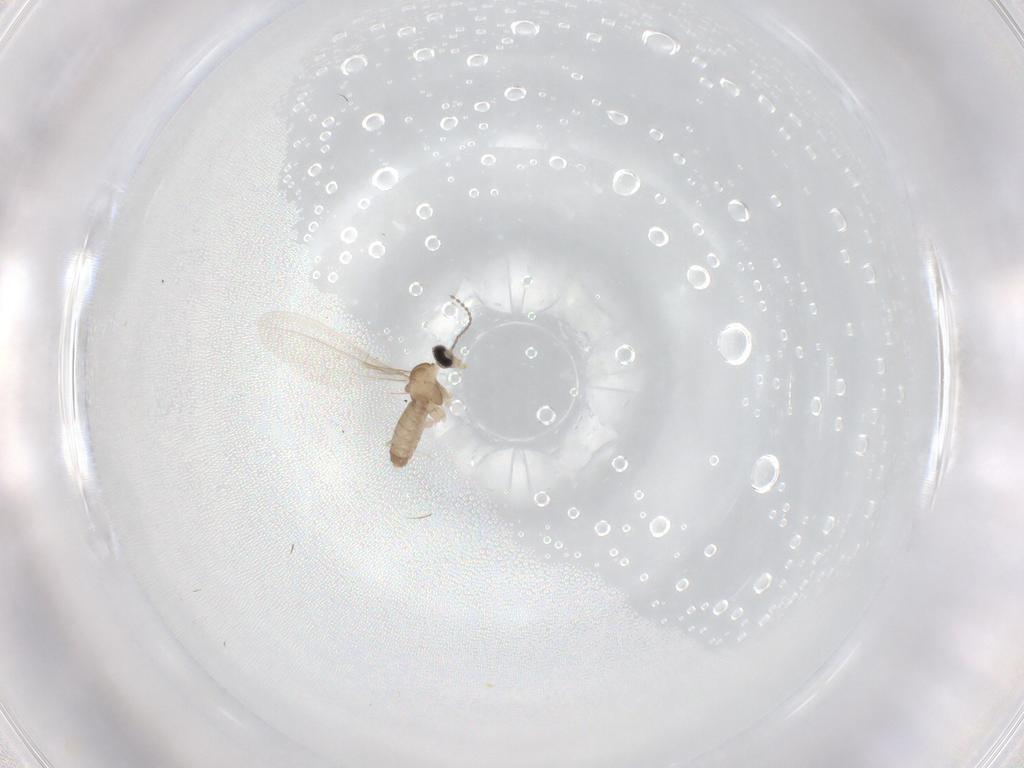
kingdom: Animalia
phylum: Arthropoda
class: Insecta
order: Diptera
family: Cecidomyiidae
